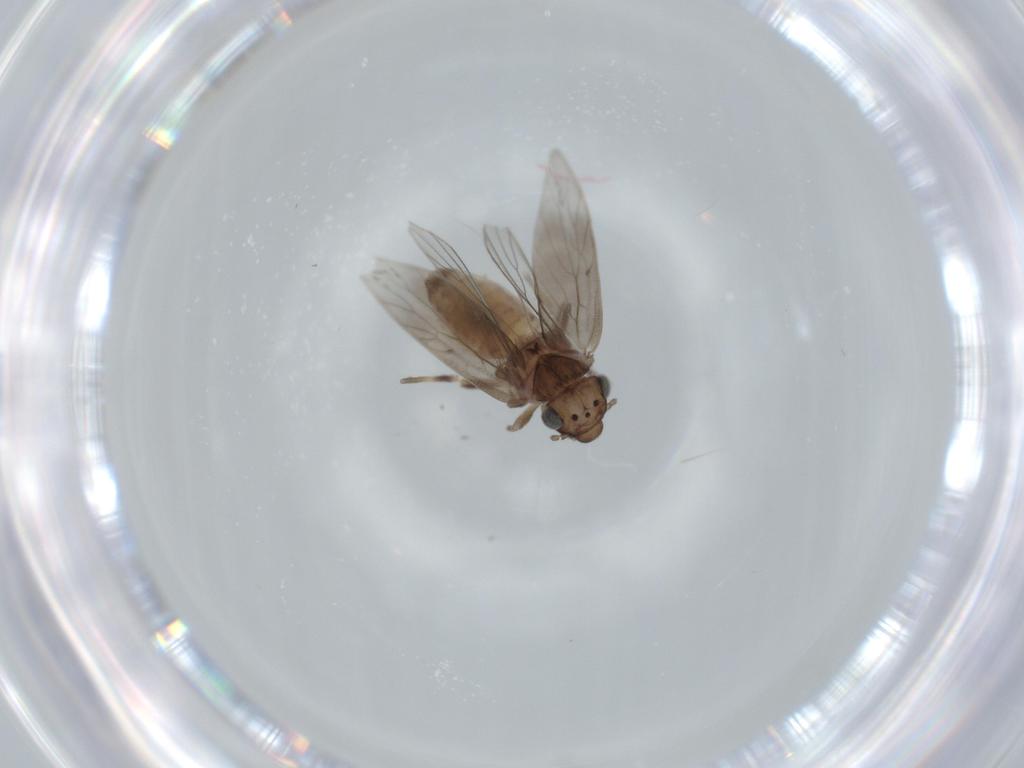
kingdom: Animalia
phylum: Arthropoda
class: Insecta
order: Psocodea
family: Lepidopsocidae
